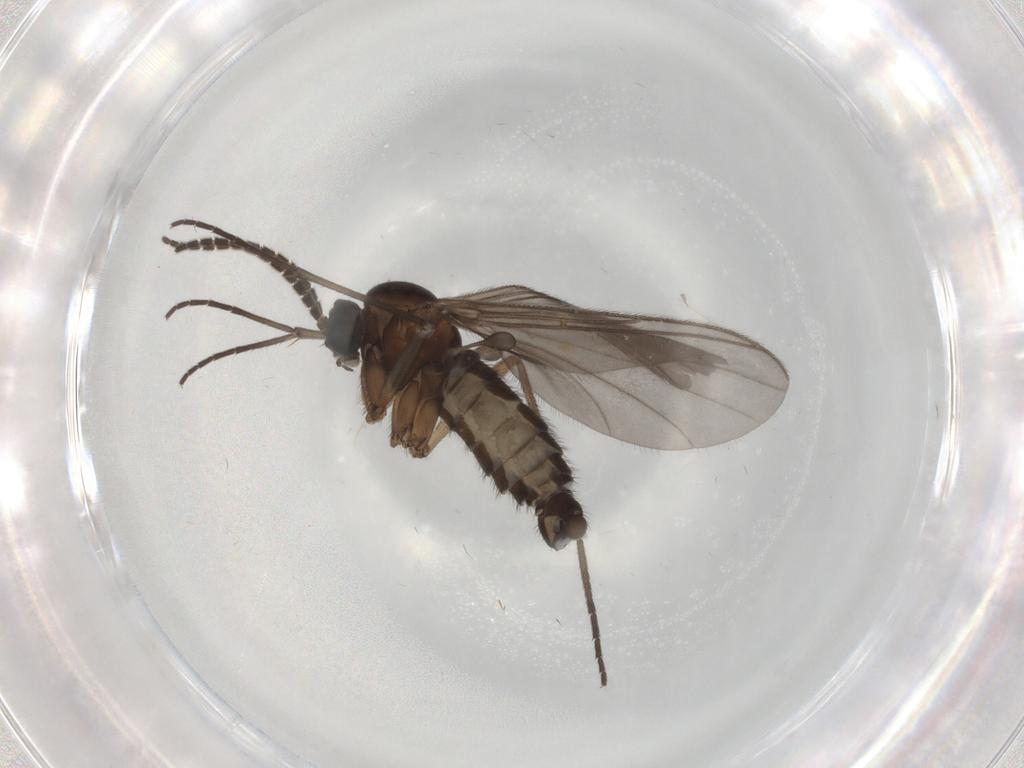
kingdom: Animalia
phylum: Arthropoda
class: Insecta
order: Diptera
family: Sciaridae
